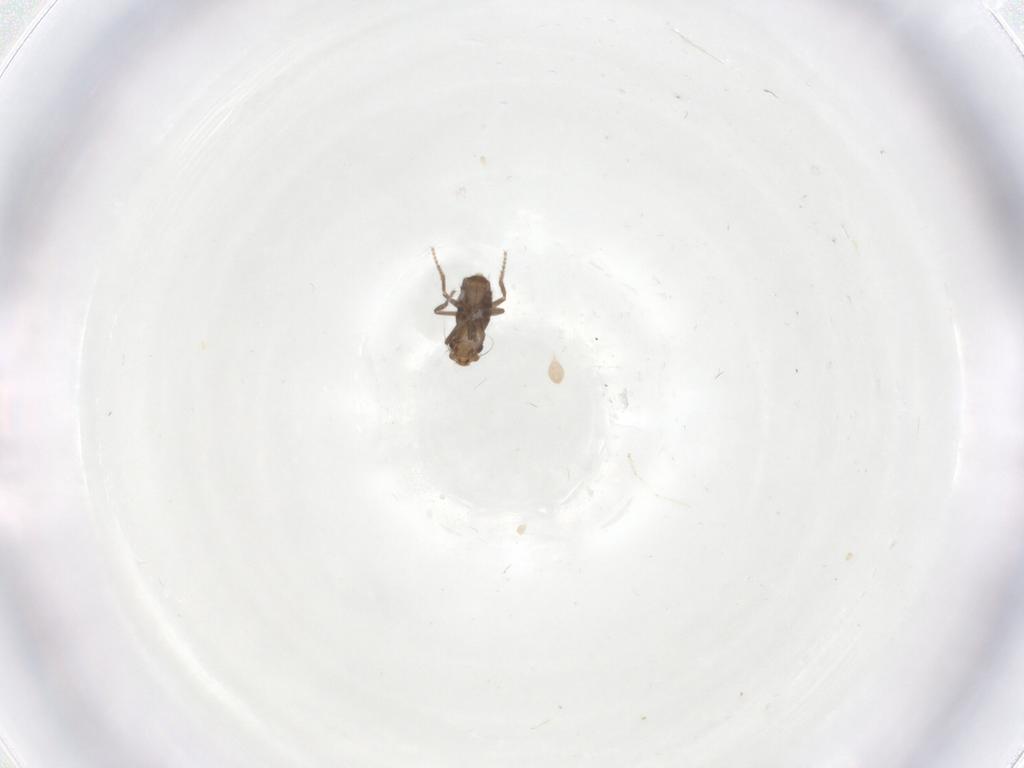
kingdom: Animalia
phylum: Arthropoda
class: Insecta
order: Diptera
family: Phoridae
